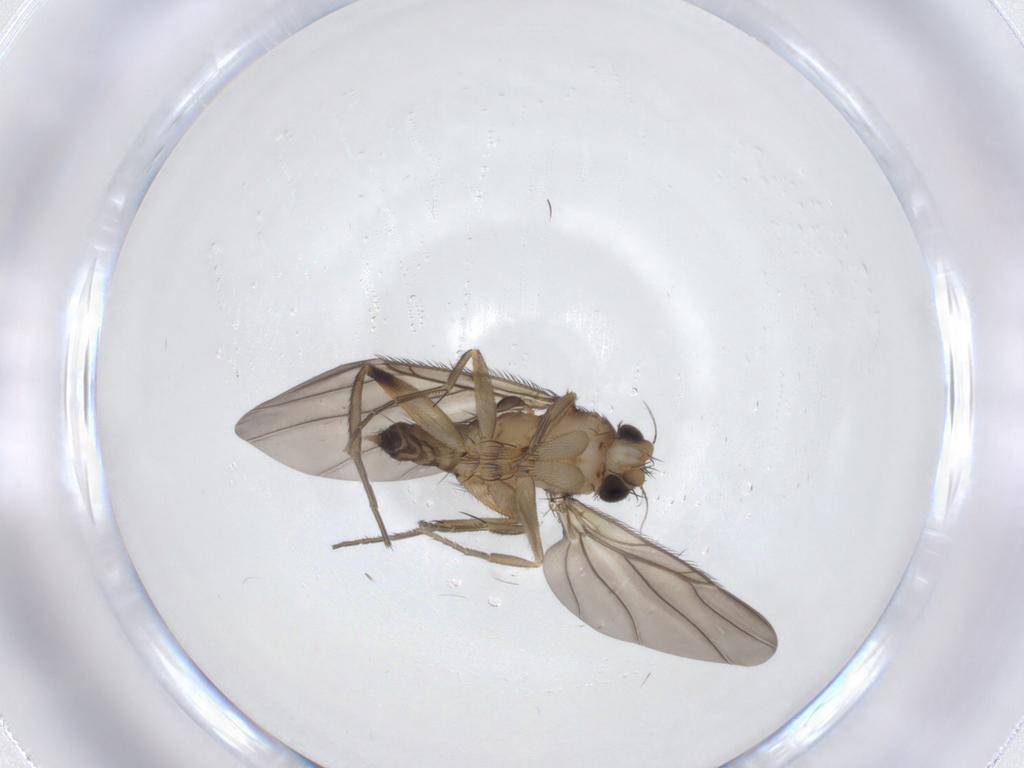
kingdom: Animalia
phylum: Arthropoda
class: Insecta
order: Diptera
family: Phoridae
